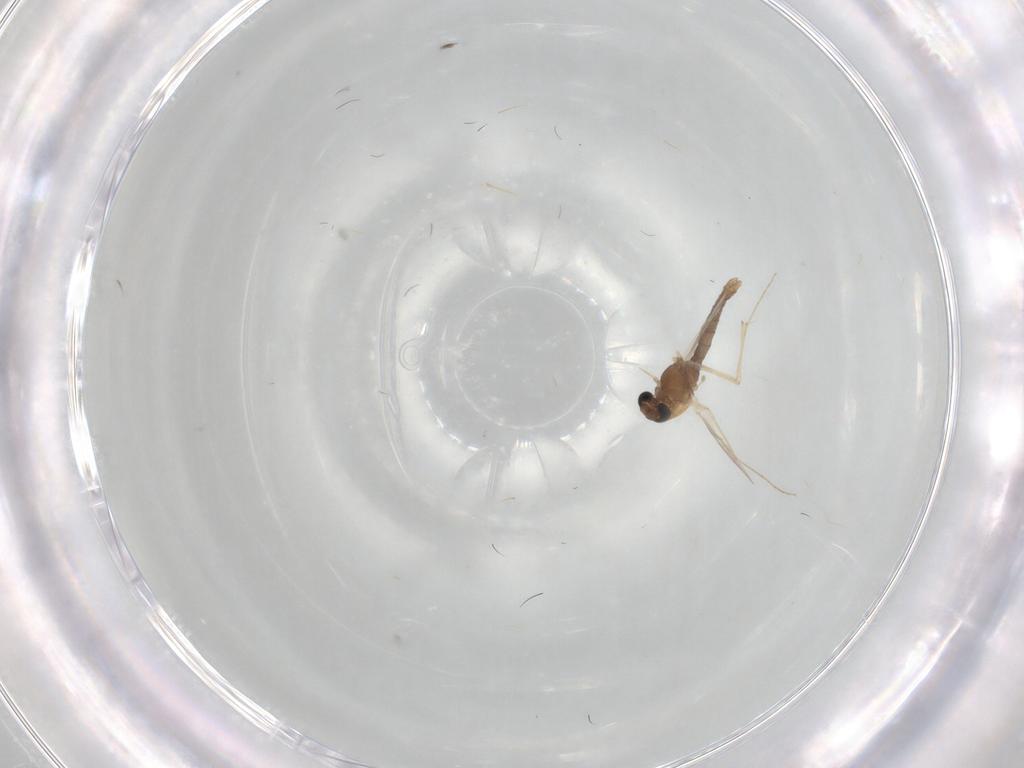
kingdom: Animalia
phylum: Arthropoda
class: Insecta
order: Diptera
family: Chironomidae
